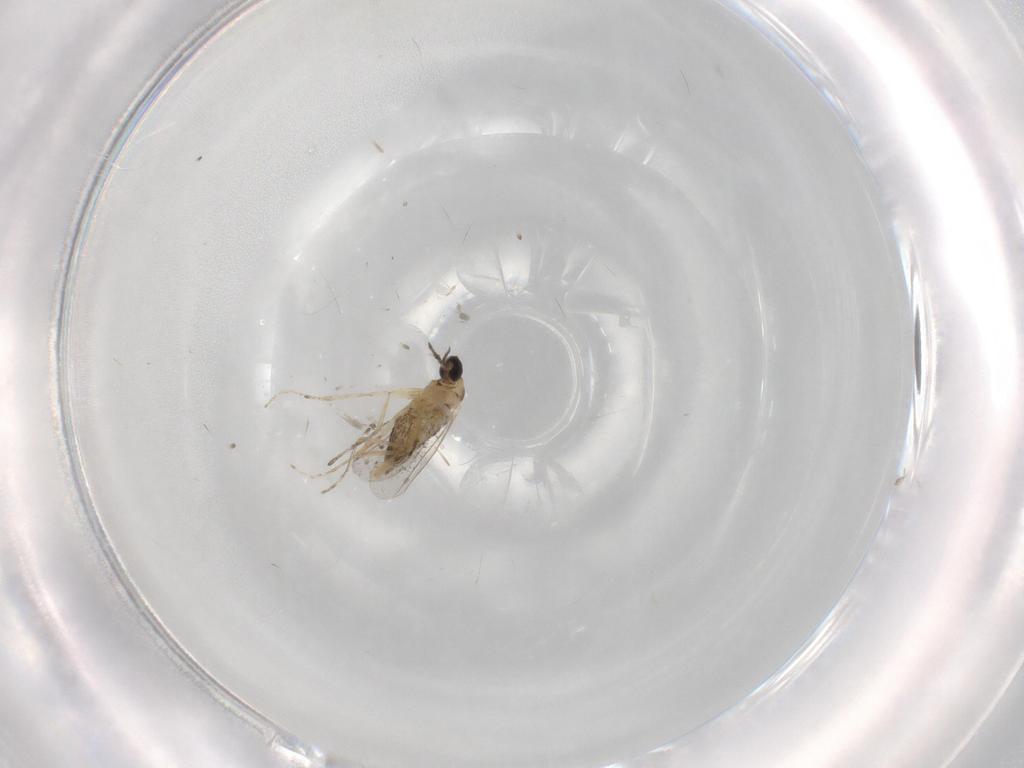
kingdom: Animalia
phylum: Arthropoda
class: Insecta
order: Diptera
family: Cecidomyiidae
